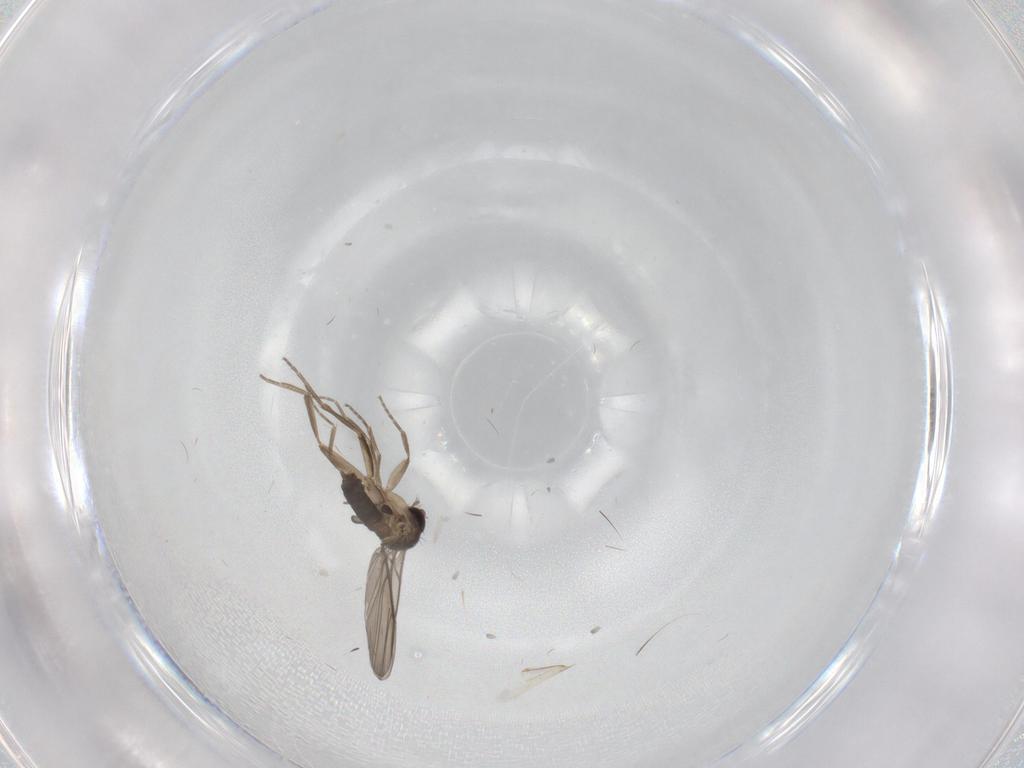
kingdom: Animalia
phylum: Arthropoda
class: Insecta
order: Diptera
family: Phoridae
